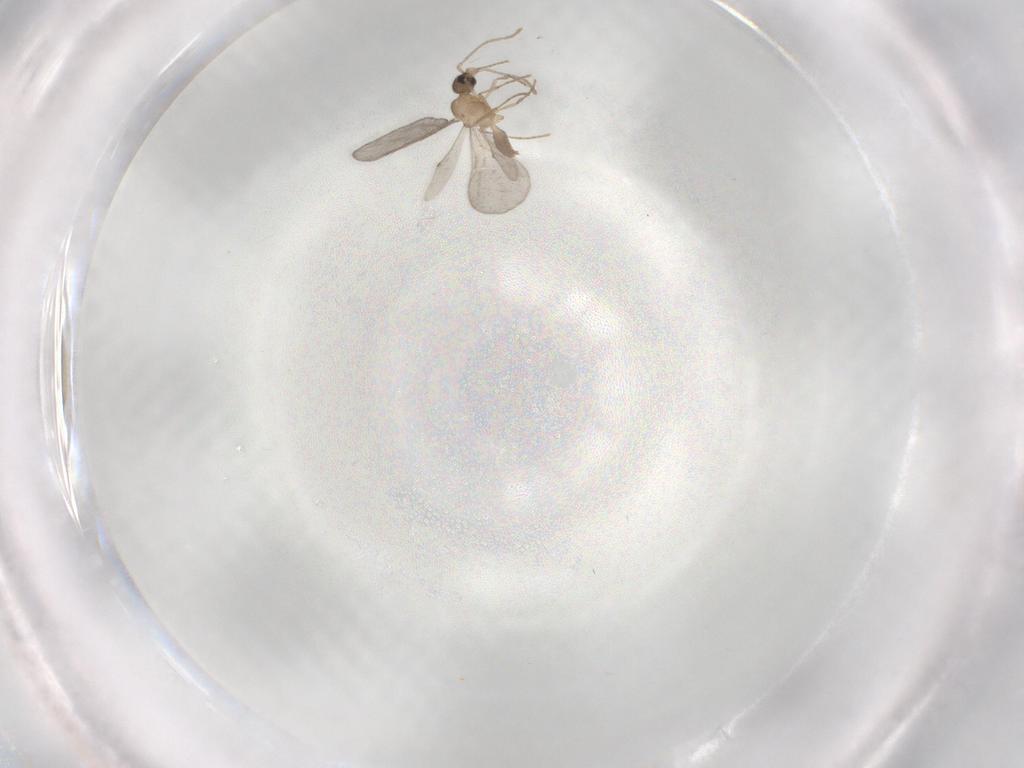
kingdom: Animalia
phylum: Arthropoda
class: Insecta
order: Hymenoptera
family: Formicidae
